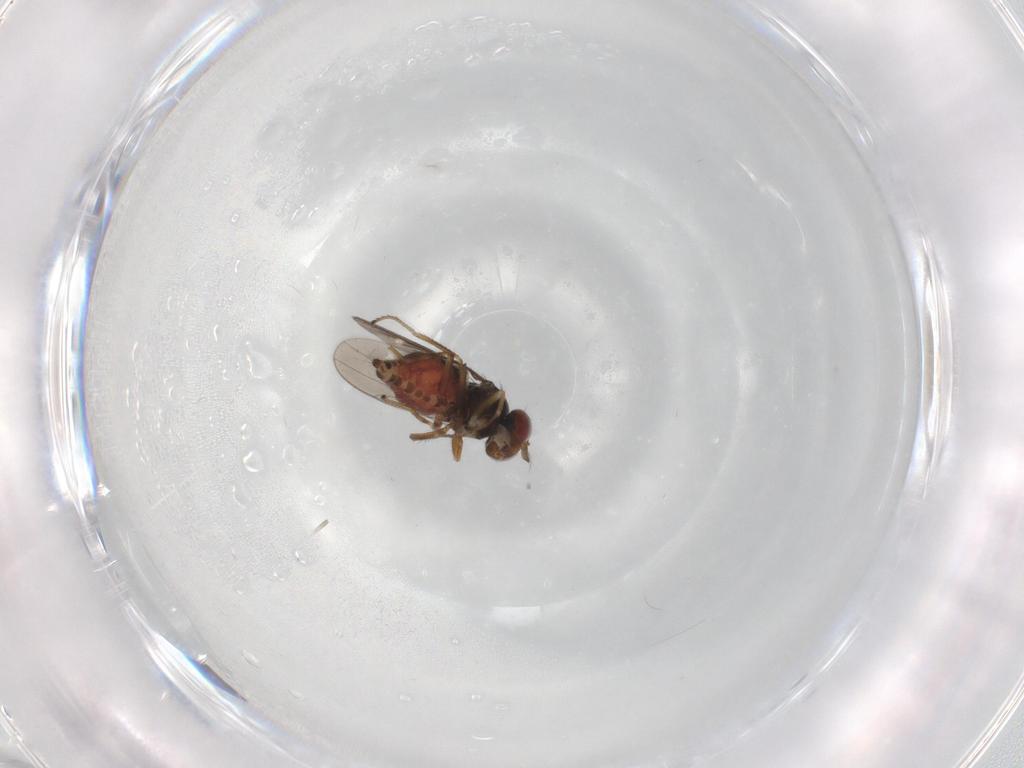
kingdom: Animalia
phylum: Arthropoda
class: Insecta
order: Diptera
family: Ephydridae
